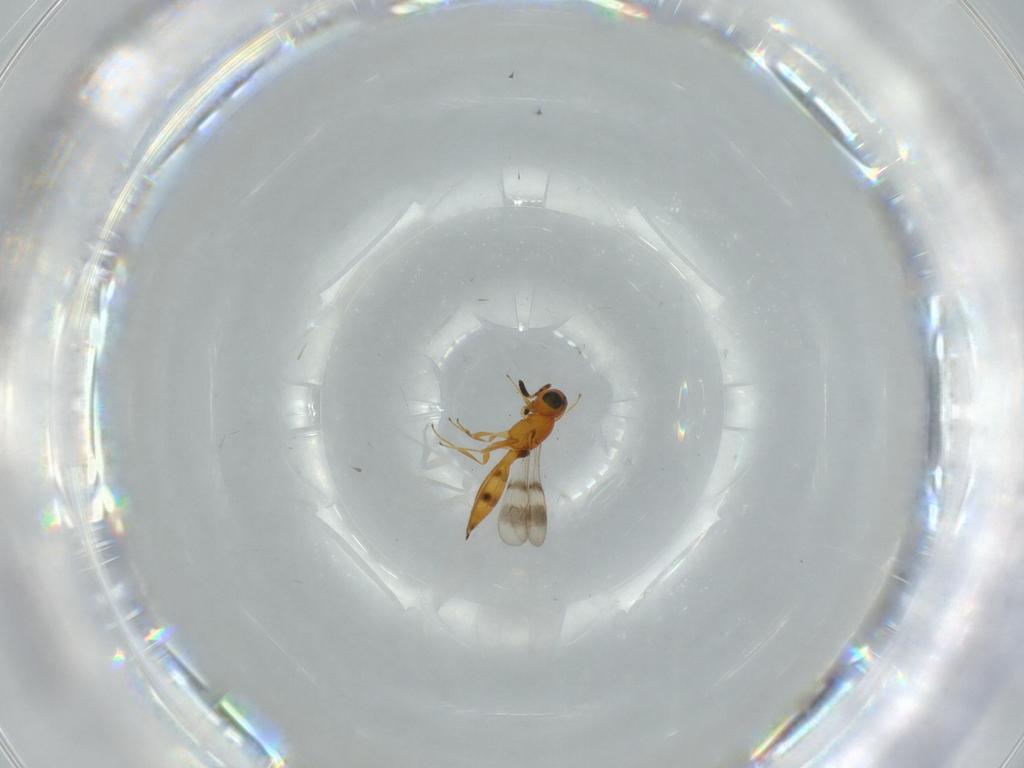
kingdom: Animalia
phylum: Arthropoda
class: Insecta
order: Hymenoptera
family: Scelionidae
